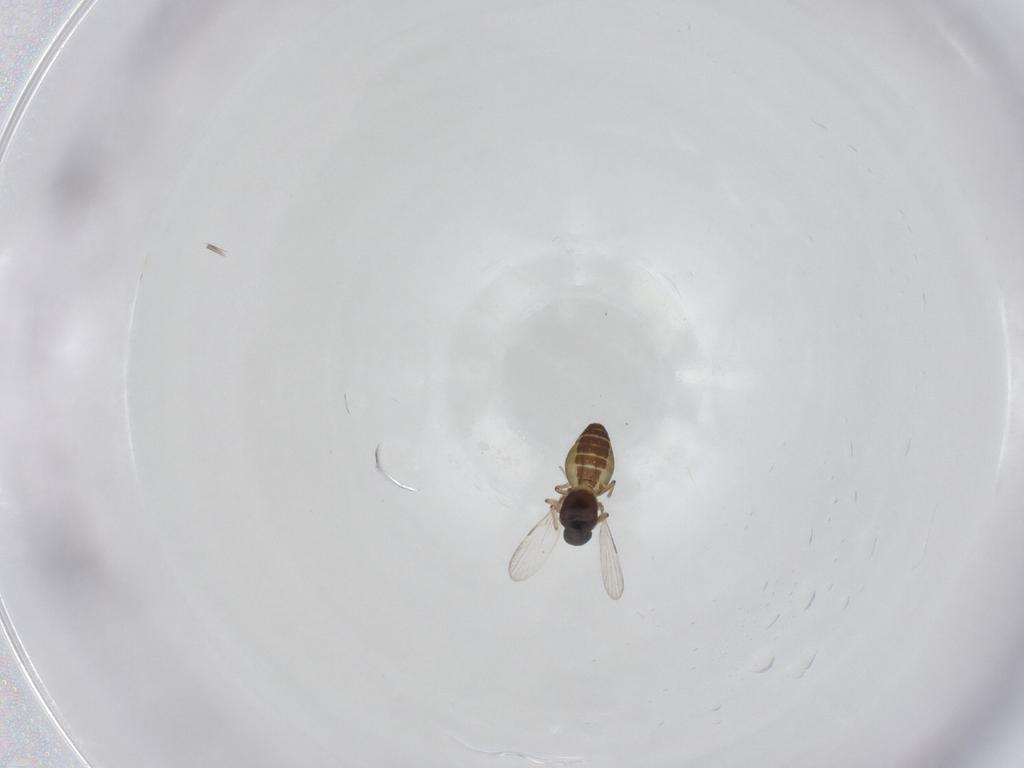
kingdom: Animalia
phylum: Arthropoda
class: Insecta
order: Diptera
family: Ceratopogonidae
